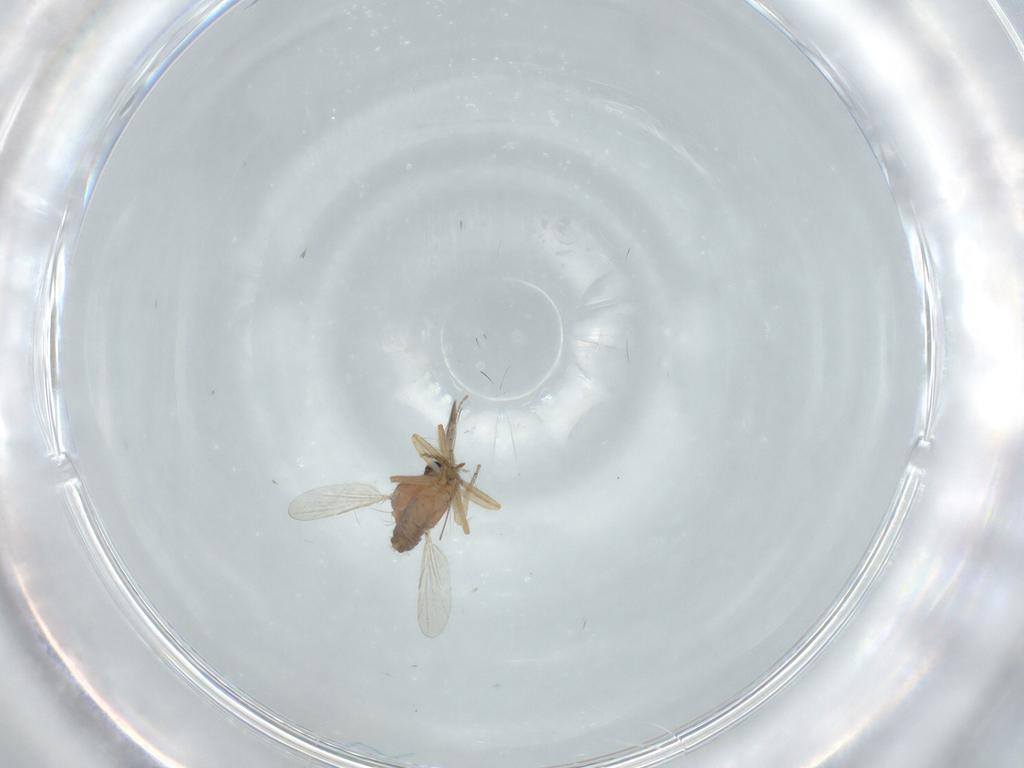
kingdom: Animalia
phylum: Arthropoda
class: Insecta
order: Diptera
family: Ceratopogonidae
